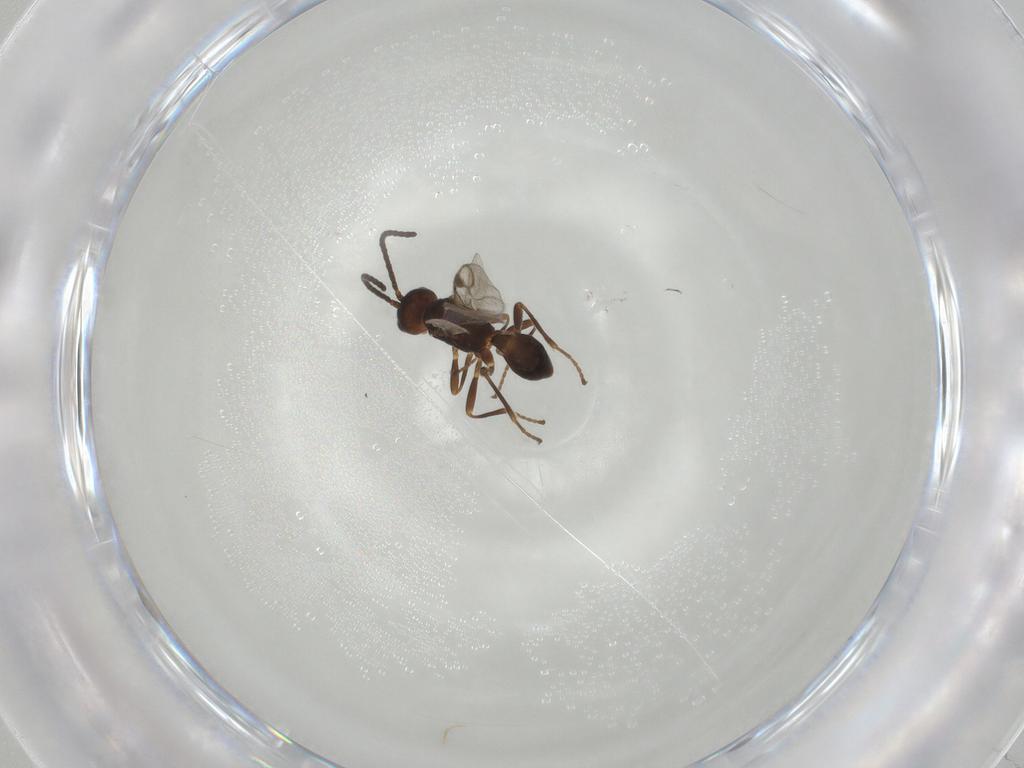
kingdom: Animalia
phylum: Arthropoda
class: Insecta
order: Hymenoptera
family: Braconidae
